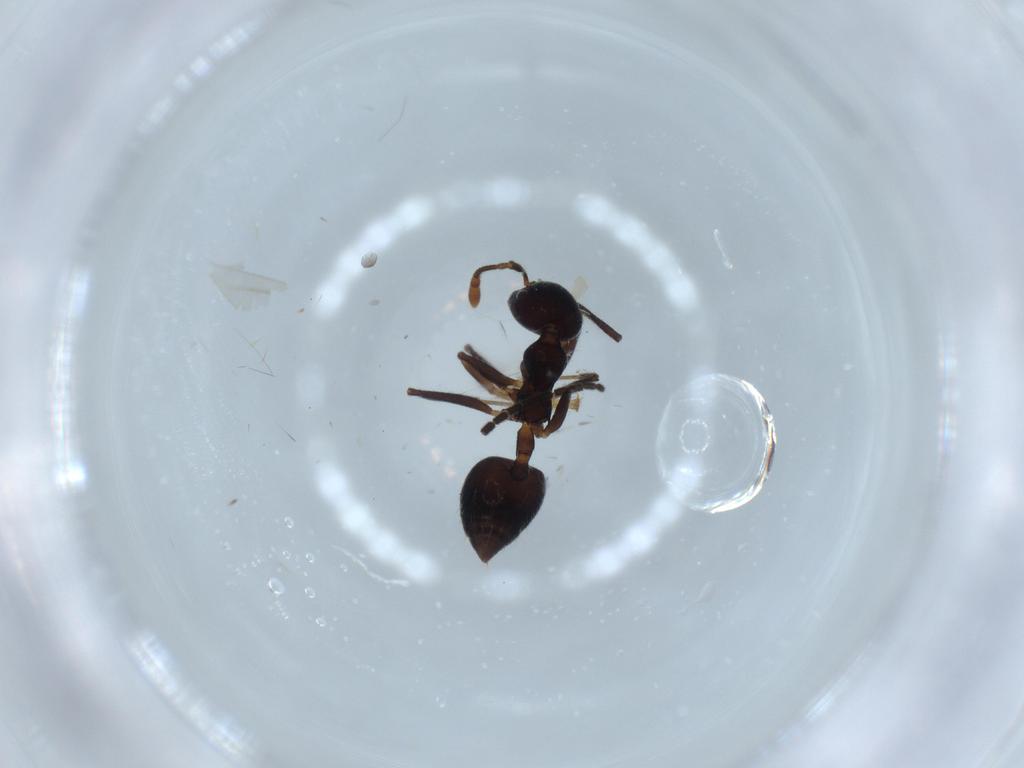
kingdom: Animalia
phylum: Arthropoda
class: Insecta
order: Hymenoptera
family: Formicidae
